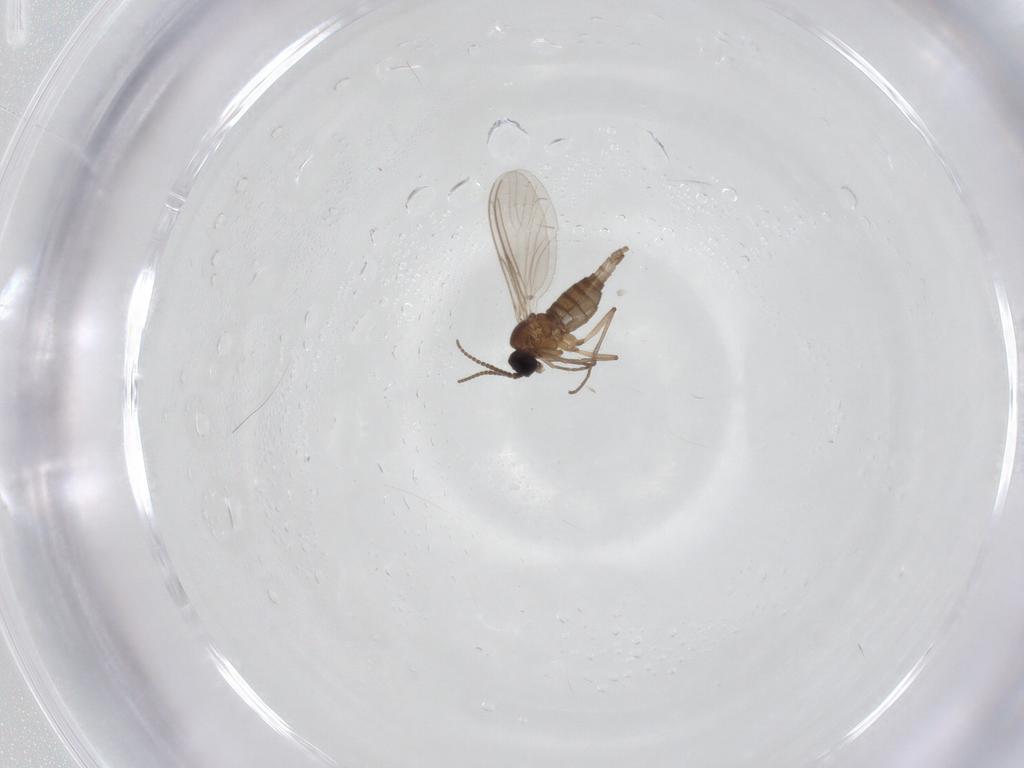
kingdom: Animalia
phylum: Arthropoda
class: Insecta
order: Diptera
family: Sciaridae
